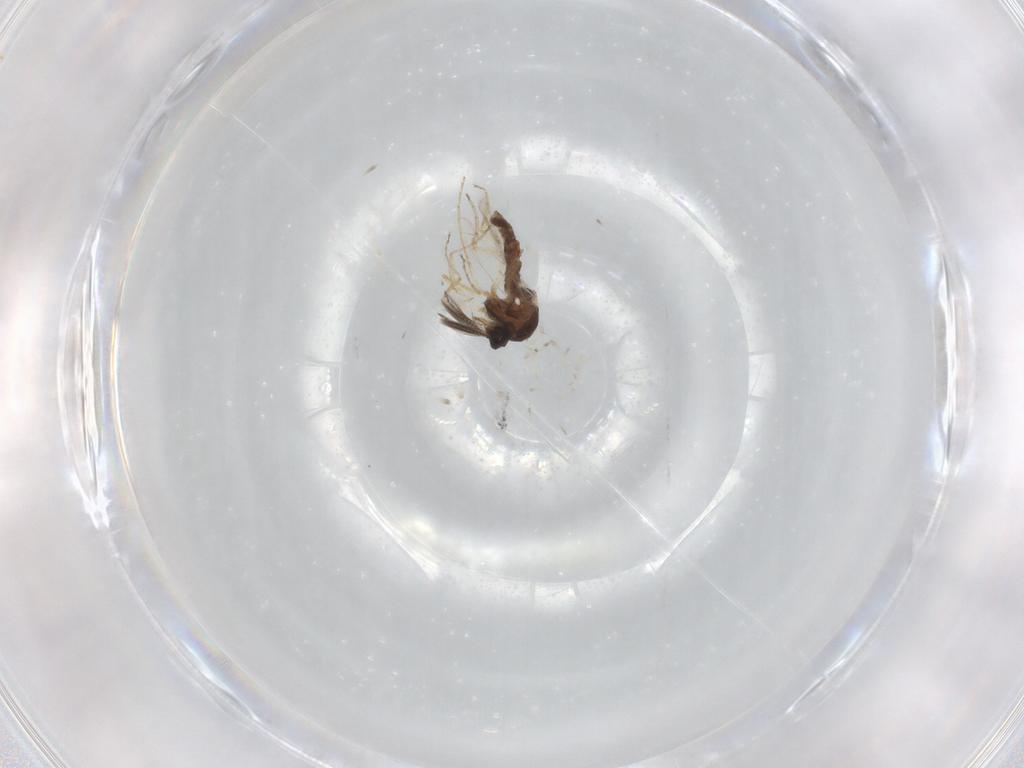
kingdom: Animalia
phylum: Arthropoda
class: Insecta
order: Diptera
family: Ceratopogonidae
